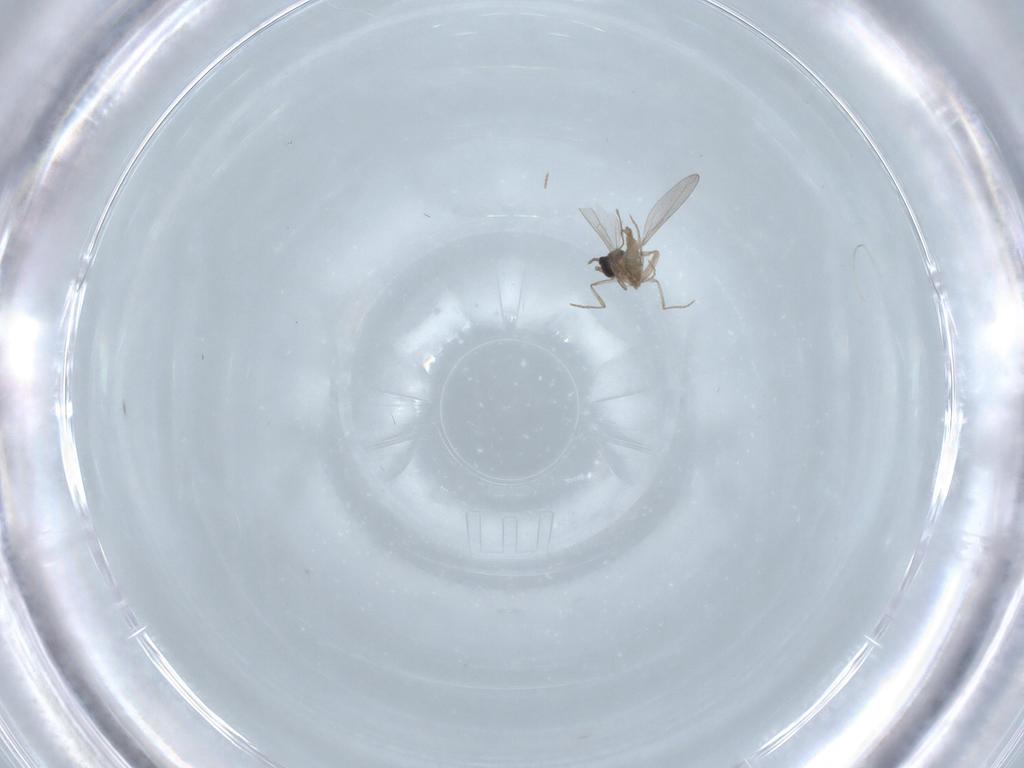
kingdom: Animalia
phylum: Arthropoda
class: Insecta
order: Diptera
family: Cecidomyiidae
